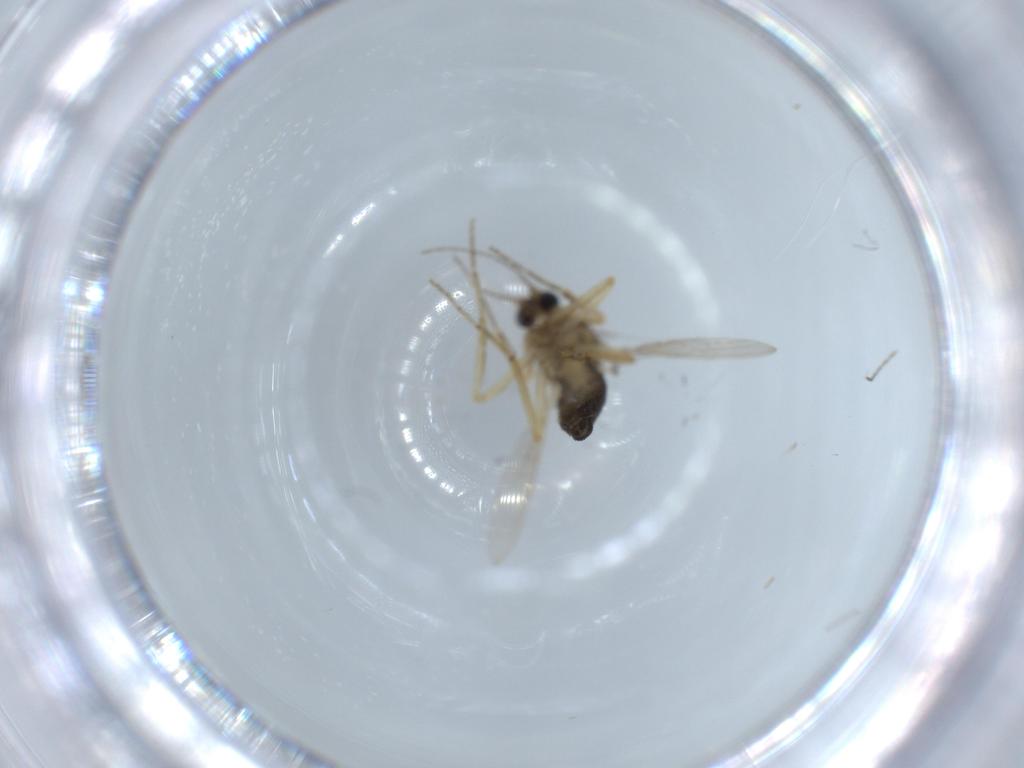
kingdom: Animalia
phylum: Arthropoda
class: Insecta
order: Diptera
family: Ceratopogonidae
